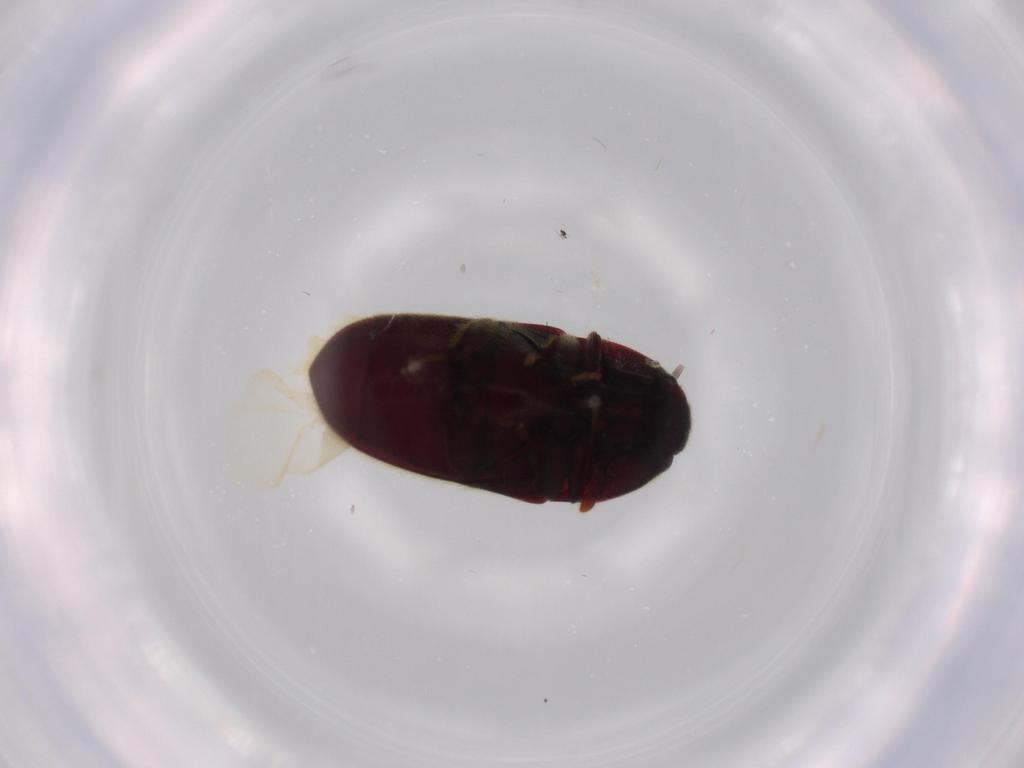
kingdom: Animalia
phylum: Arthropoda
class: Insecta
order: Coleoptera
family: Throscidae
